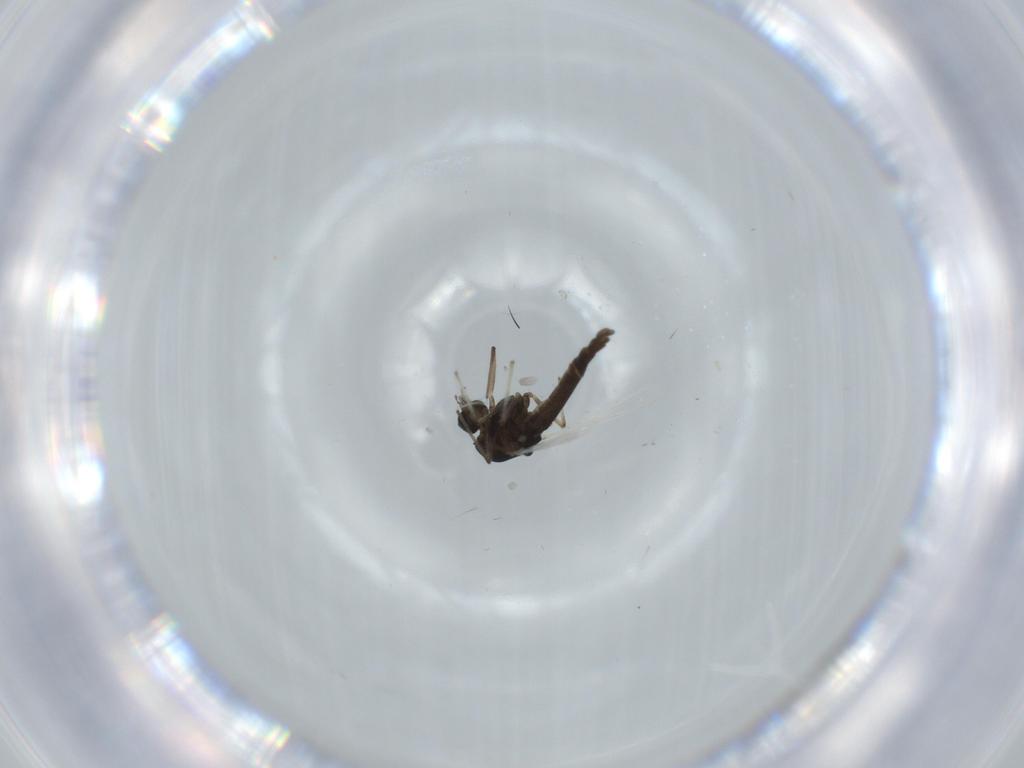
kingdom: Animalia
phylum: Arthropoda
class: Insecta
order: Diptera
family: Chironomidae
